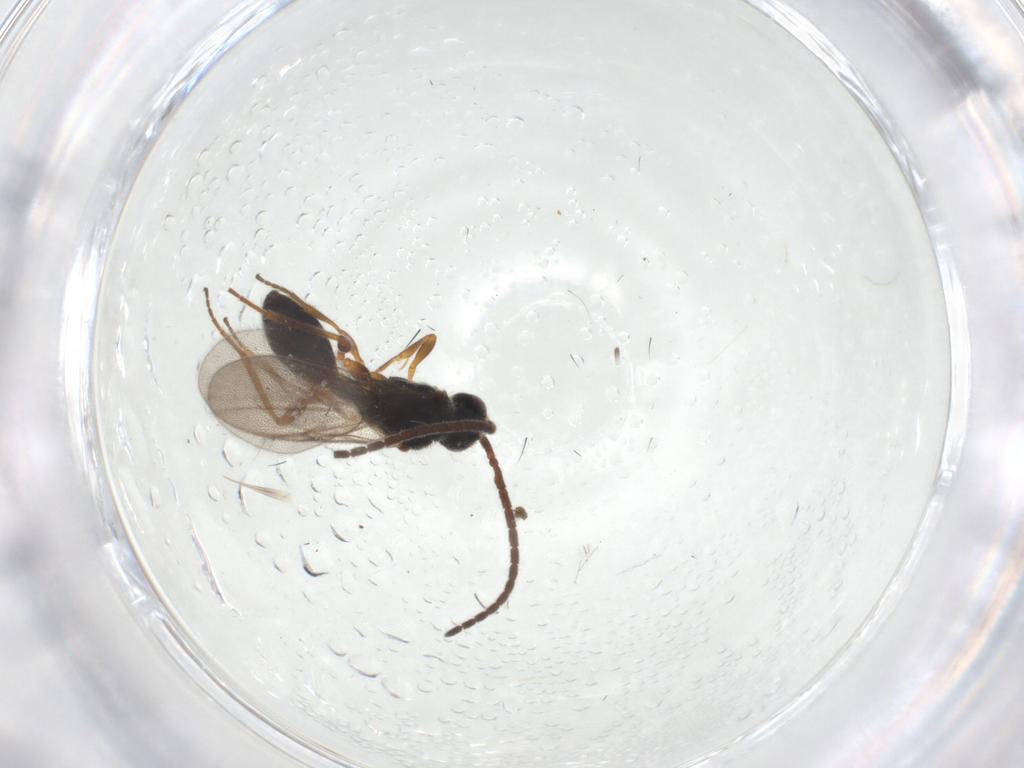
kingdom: Animalia
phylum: Arthropoda
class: Insecta
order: Hymenoptera
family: Diapriidae
